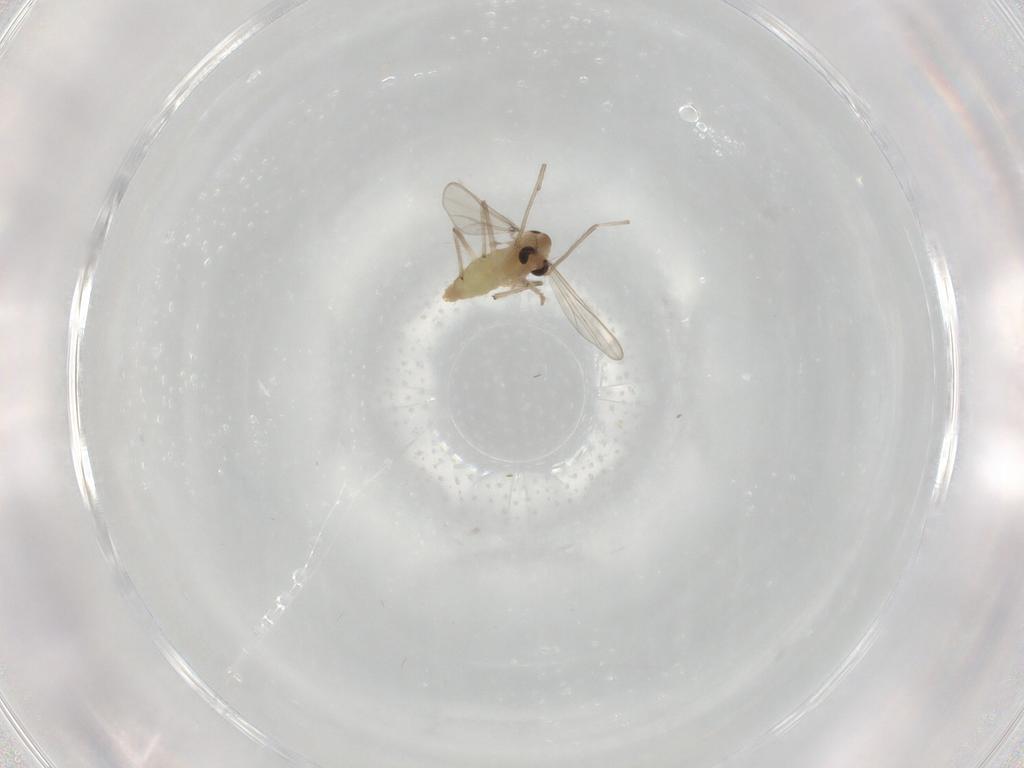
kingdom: Animalia
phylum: Arthropoda
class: Insecta
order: Diptera
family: Chironomidae
